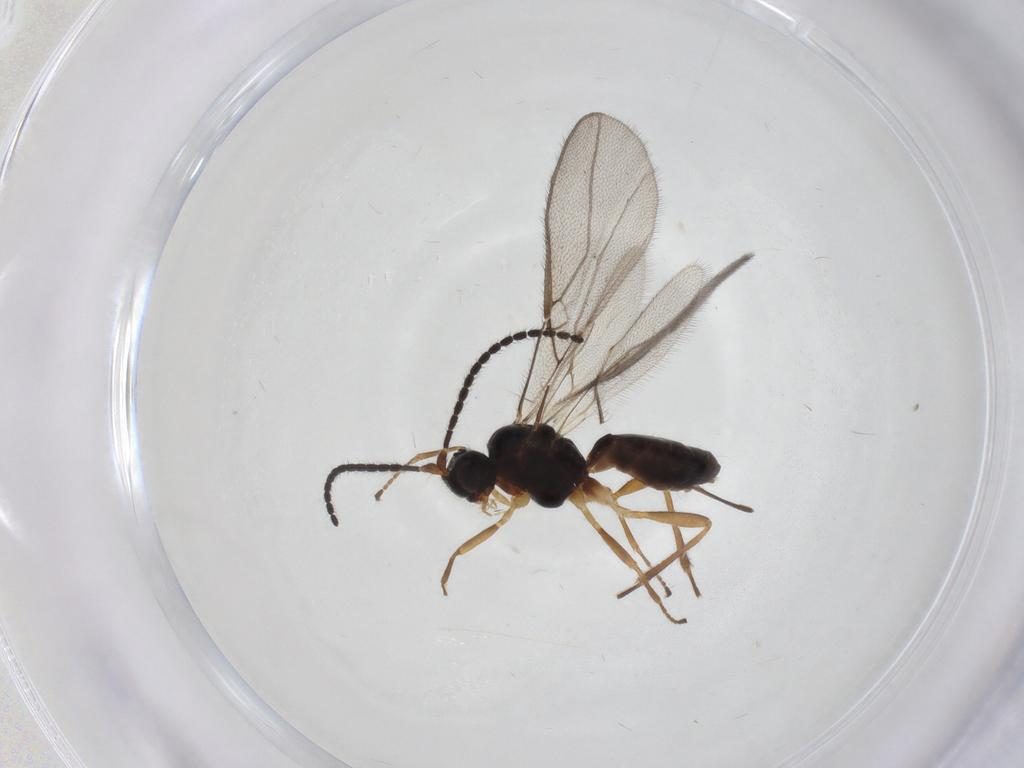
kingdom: Animalia
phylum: Arthropoda
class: Insecta
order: Hymenoptera
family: Braconidae
